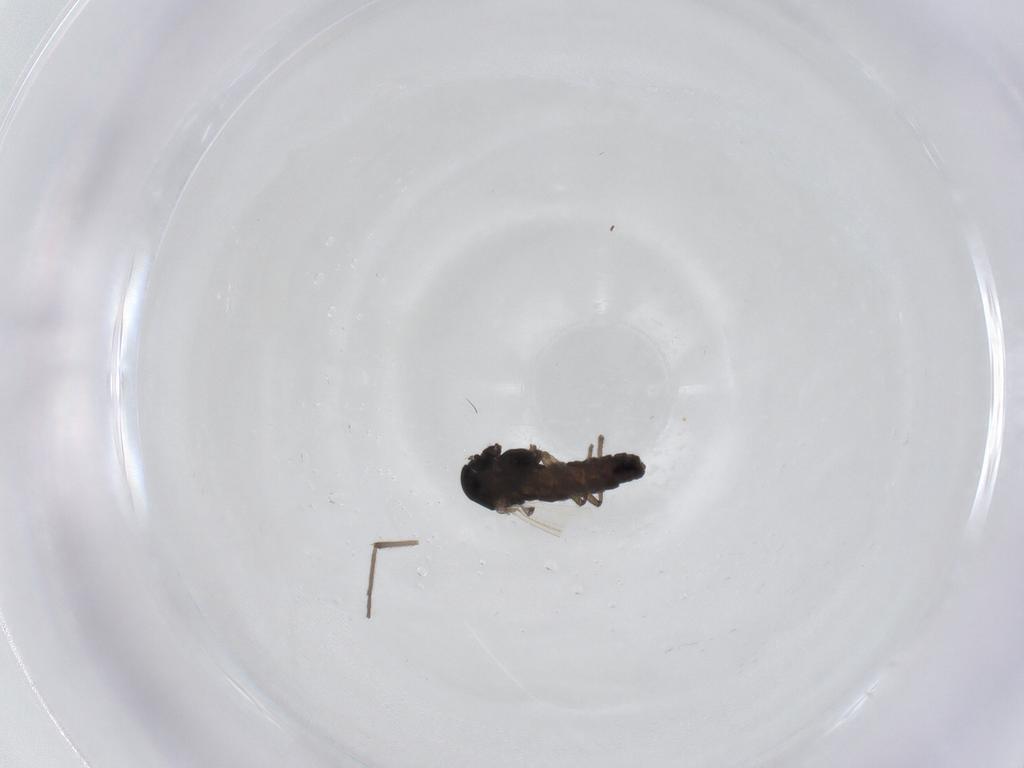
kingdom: Animalia
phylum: Arthropoda
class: Insecta
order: Diptera
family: Chironomidae
